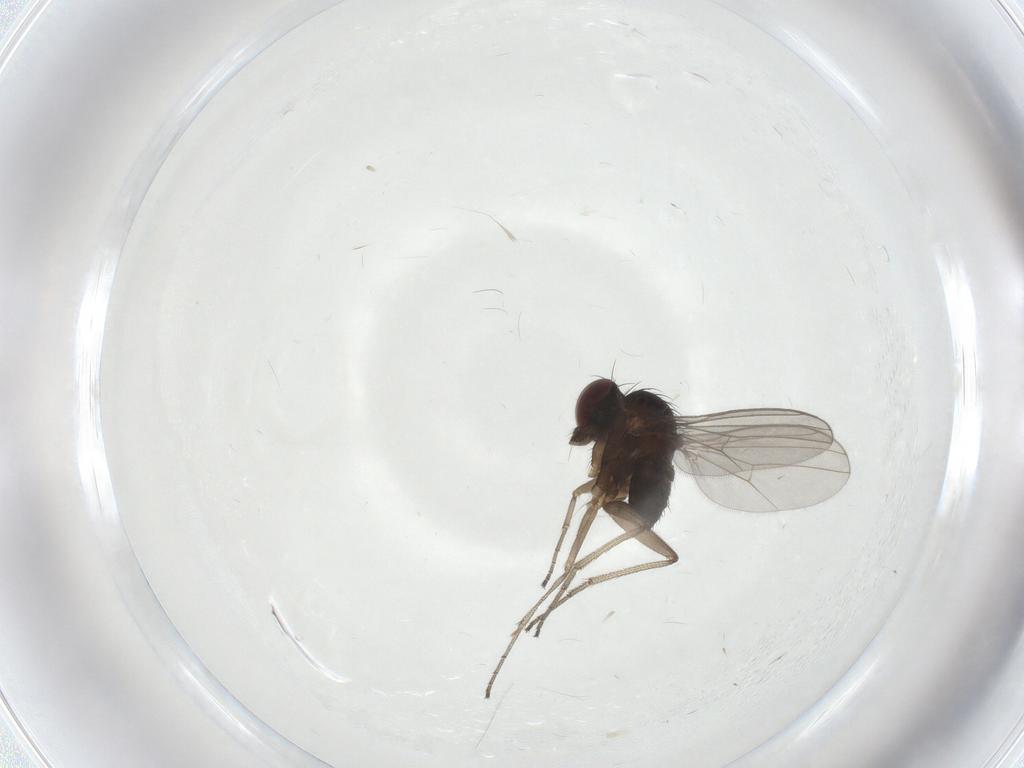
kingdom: Animalia
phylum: Arthropoda
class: Insecta
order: Diptera
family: Dolichopodidae
